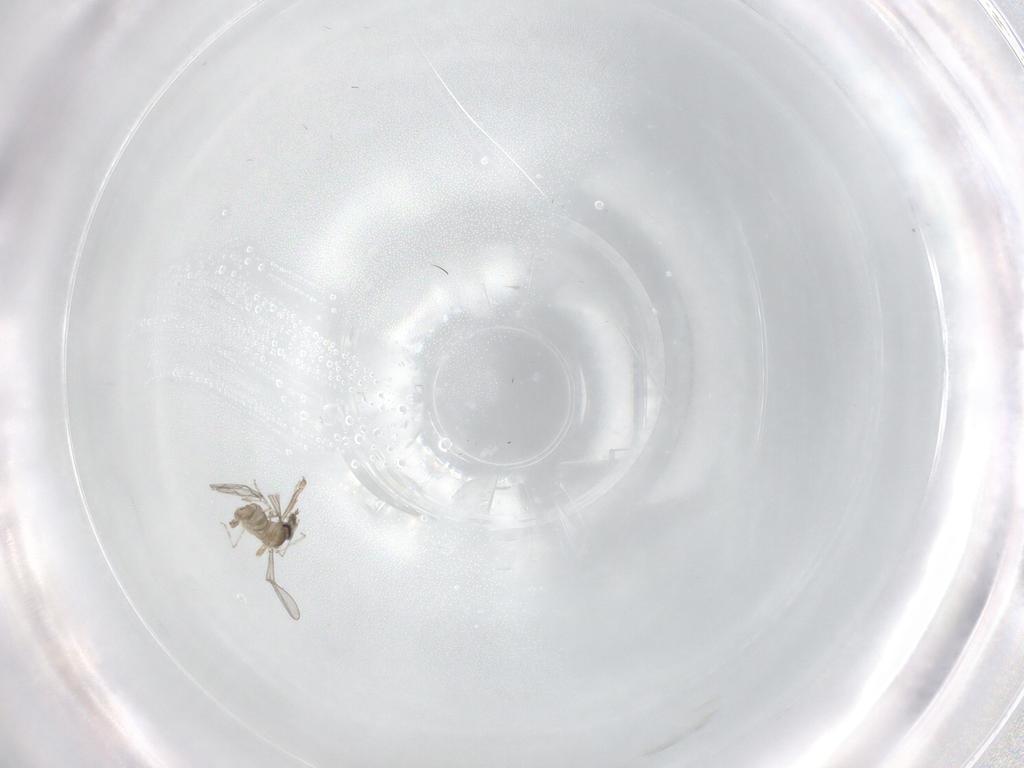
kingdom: Animalia
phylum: Arthropoda
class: Insecta
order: Diptera
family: Cecidomyiidae
